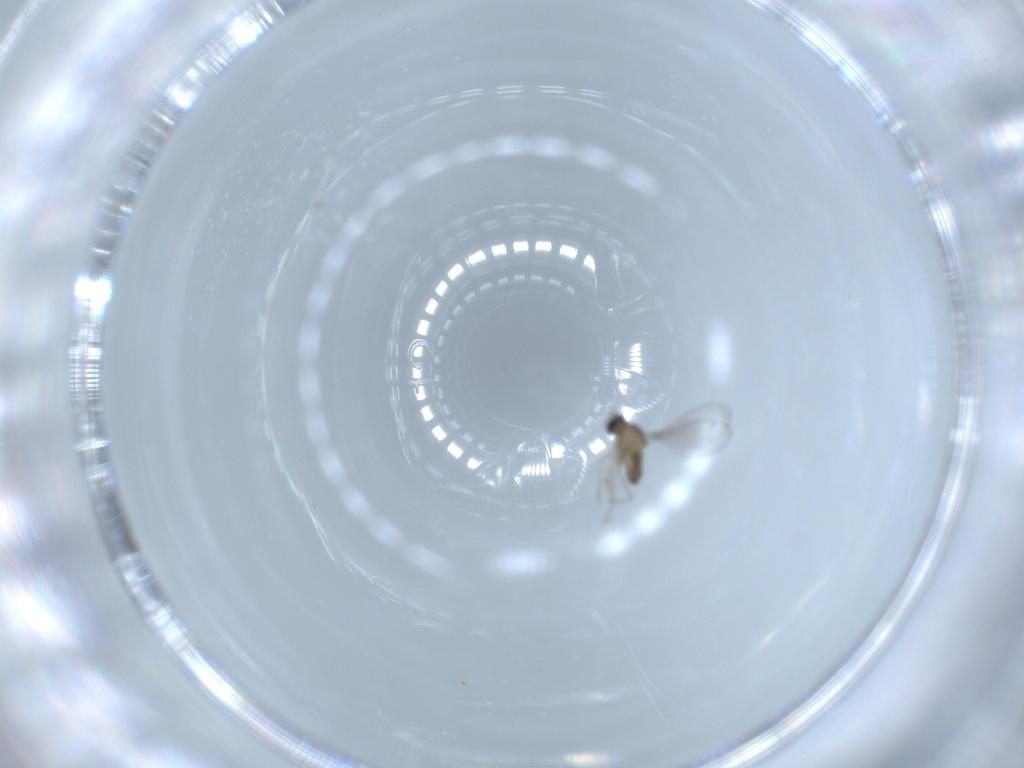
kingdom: Animalia
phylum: Arthropoda
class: Insecta
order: Diptera
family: Cecidomyiidae
